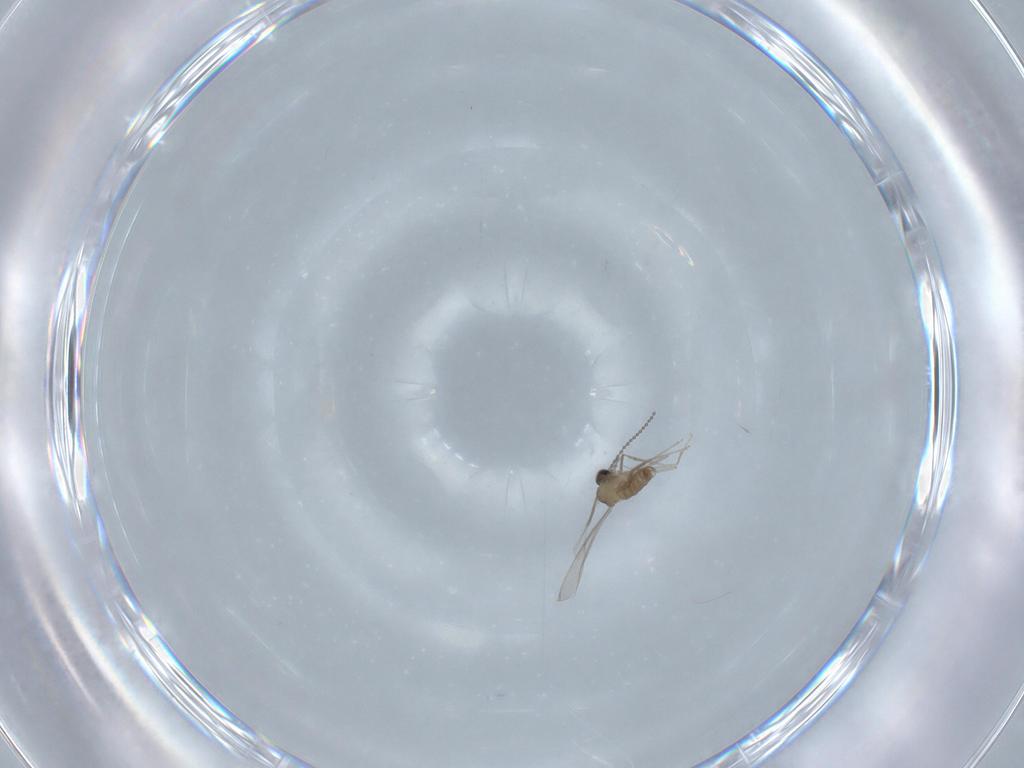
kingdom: Animalia
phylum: Arthropoda
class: Insecta
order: Diptera
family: Cecidomyiidae
